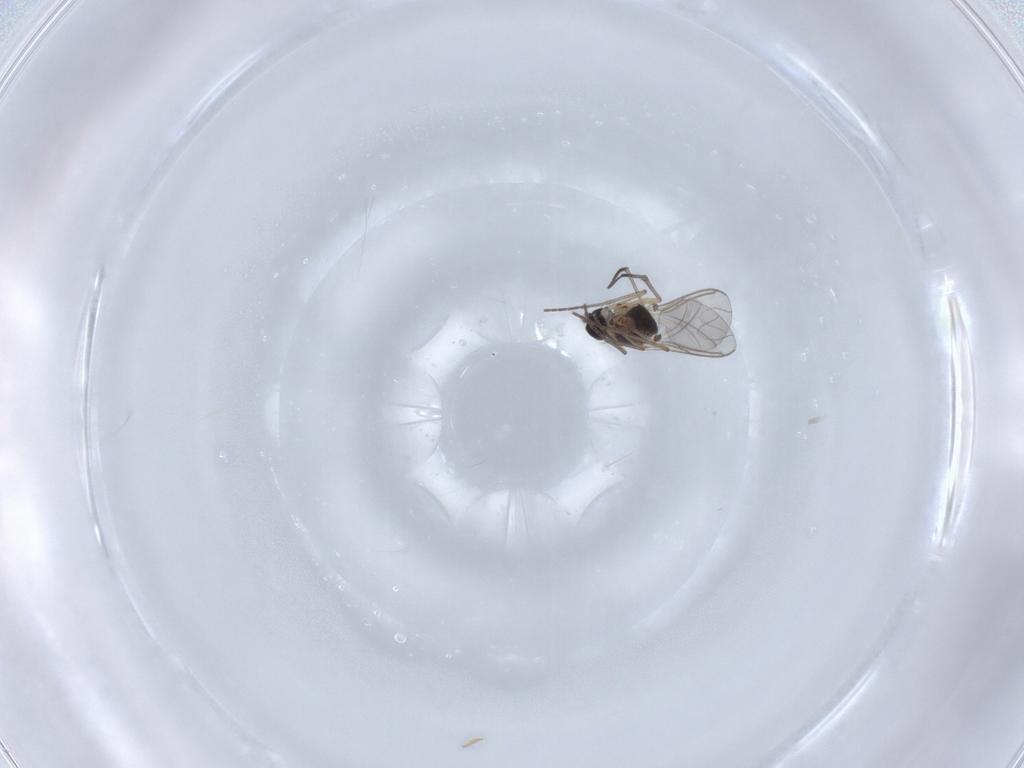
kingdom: Animalia
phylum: Arthropoda
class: Insecta
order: Diptera
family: Sciaridae
